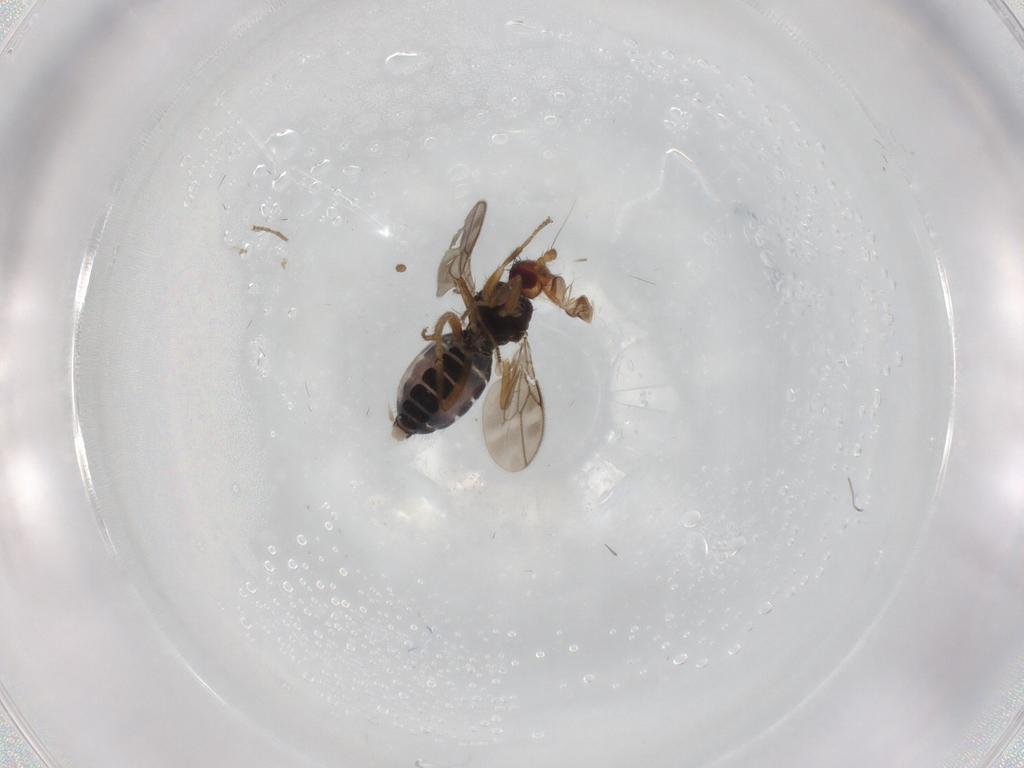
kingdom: Animalia
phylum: Arthropoda
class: Insecta
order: Diptera
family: Sphaeroceridae
